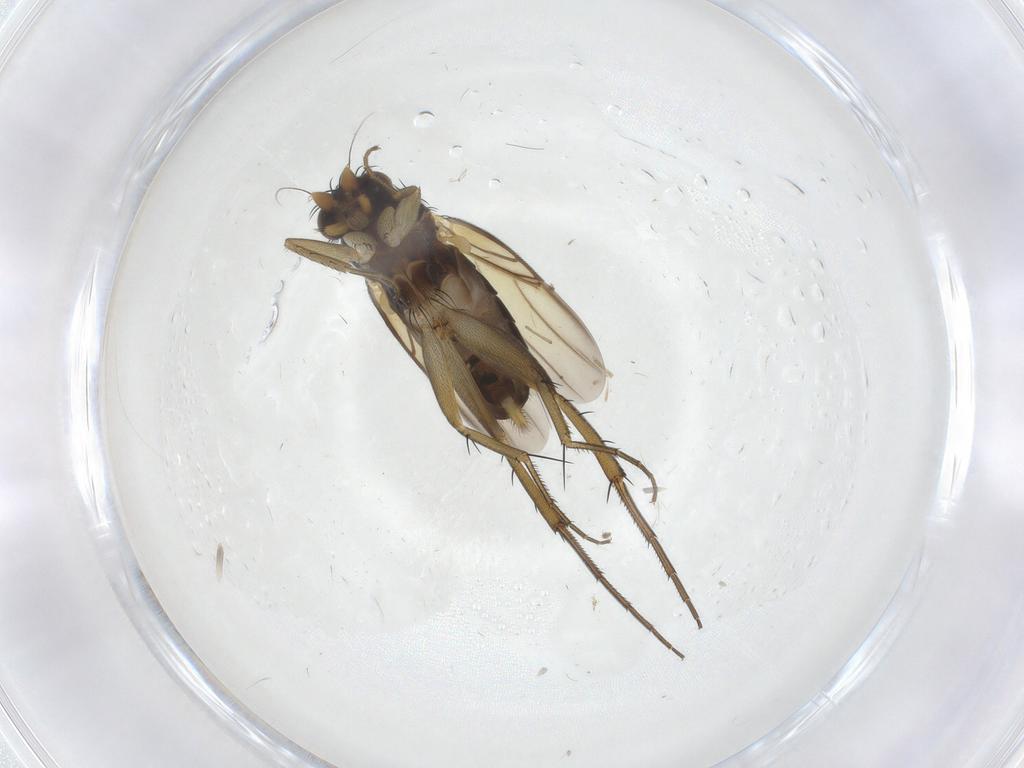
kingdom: Animalia
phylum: Arthropoda
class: Insecta
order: Diptera
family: Phoridae
